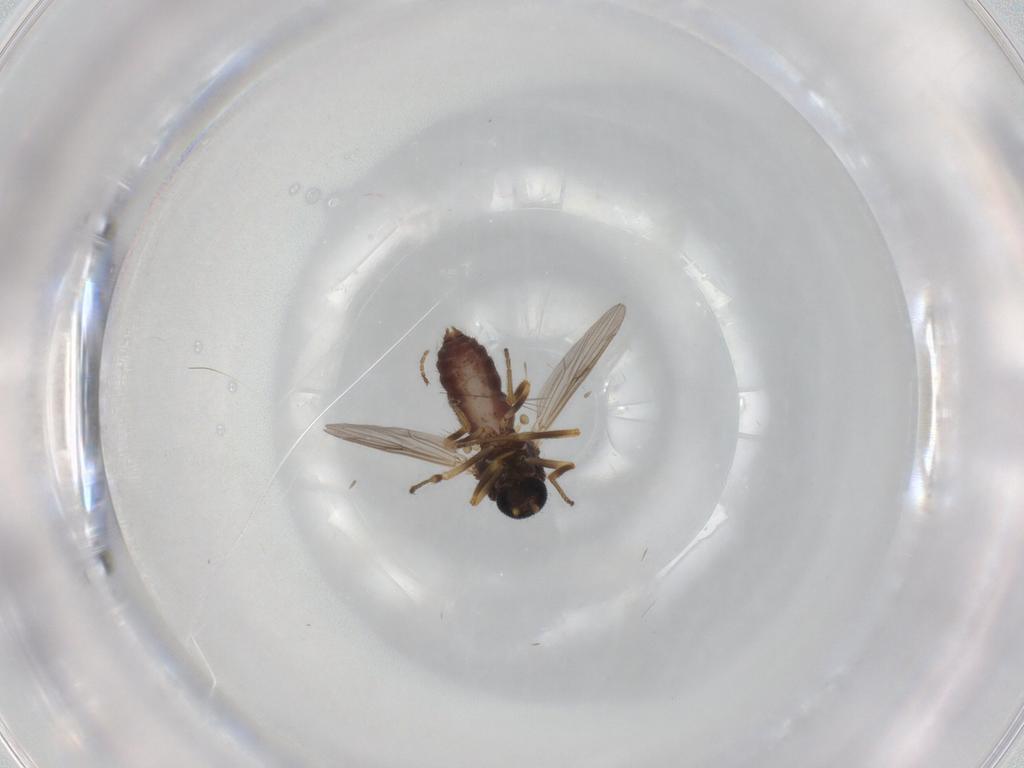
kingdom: Animalia
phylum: Arthropoda
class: Insecta
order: Diptera
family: Ceratopogonidae
